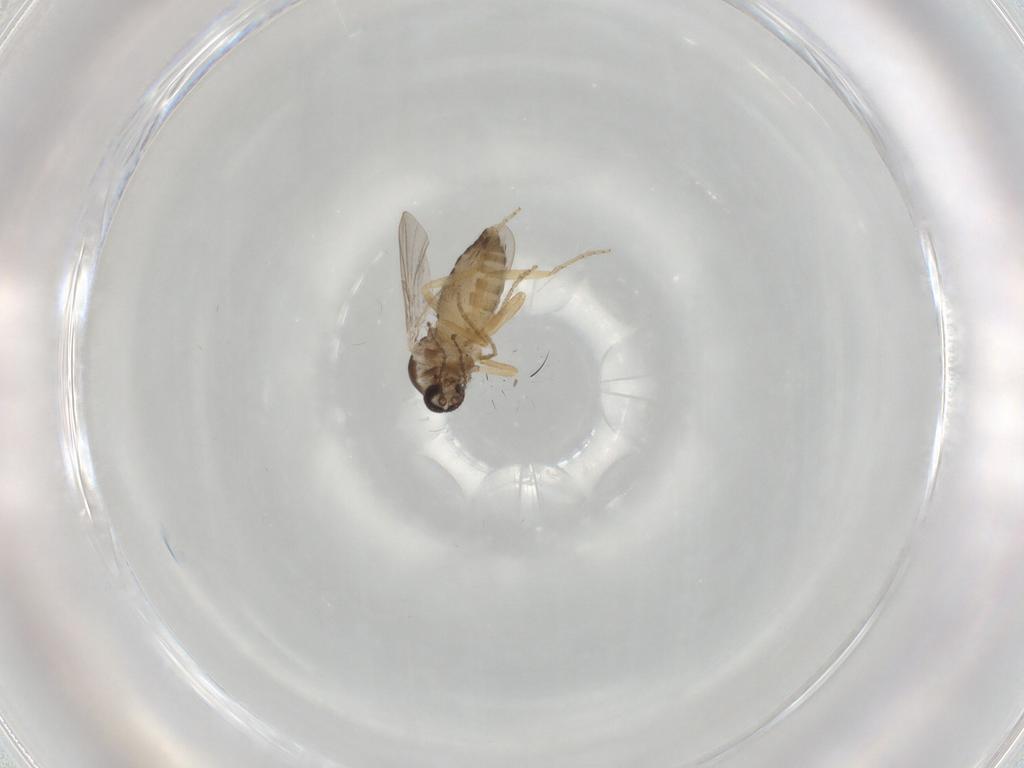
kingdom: Animalia
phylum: Arthropoda
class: Insecta
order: Diptera
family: Ceratopogonidae
